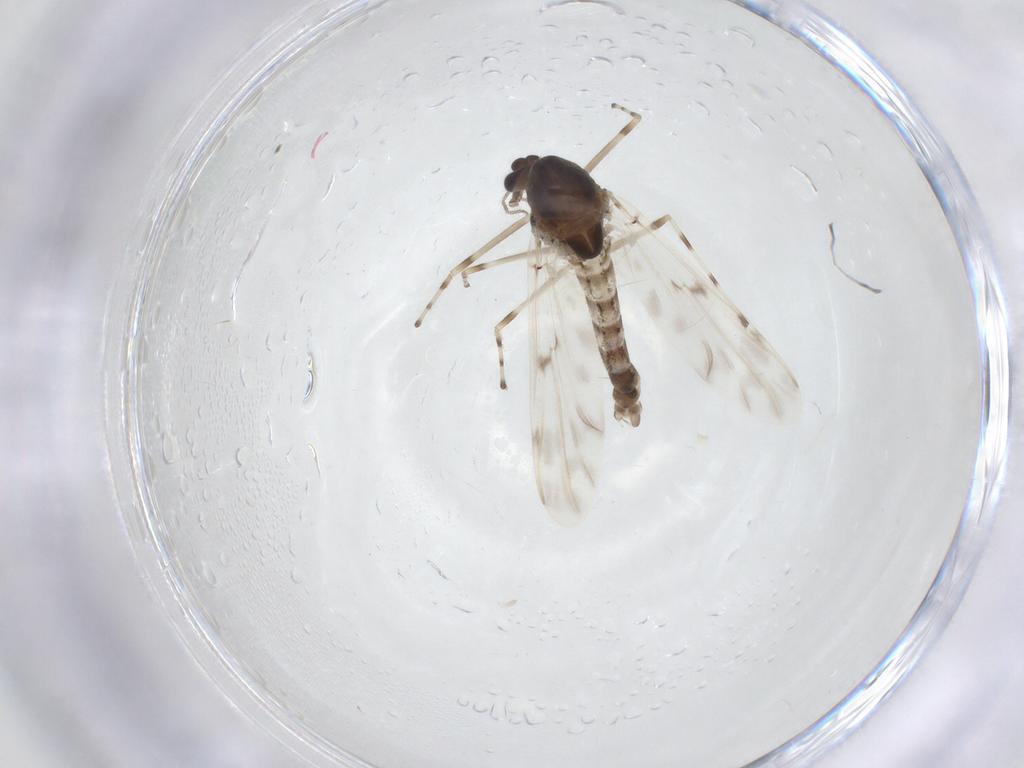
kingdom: Animalia
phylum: Arthropoda
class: Insecta
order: Diptera
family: Chironomidae
